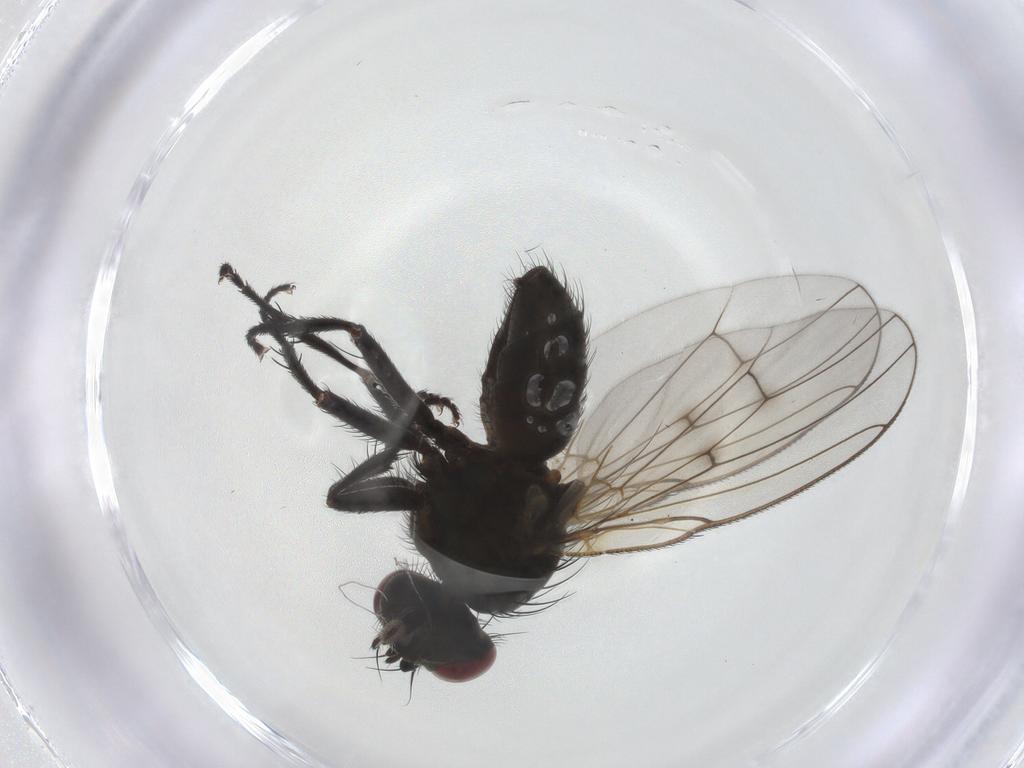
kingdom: Animalia
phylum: Arthropoda
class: Insecta
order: Diptera
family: Muscidae
